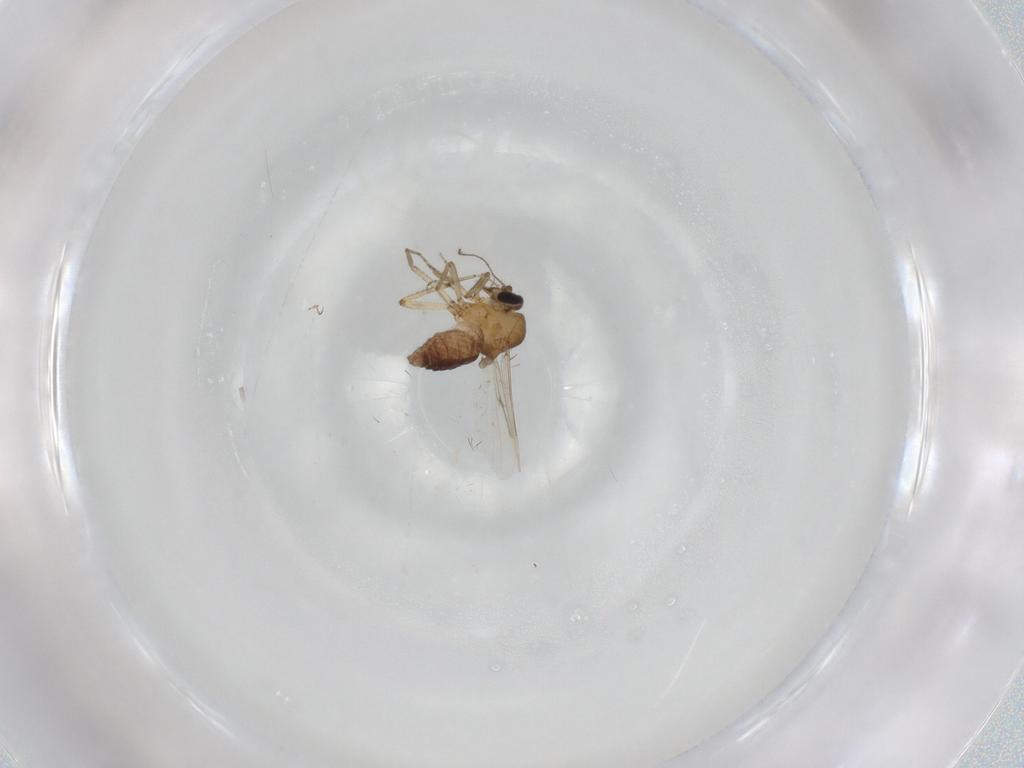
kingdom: Animalia
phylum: Arthropoda
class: Insecta
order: Diptera
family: Ceratopogonidae
